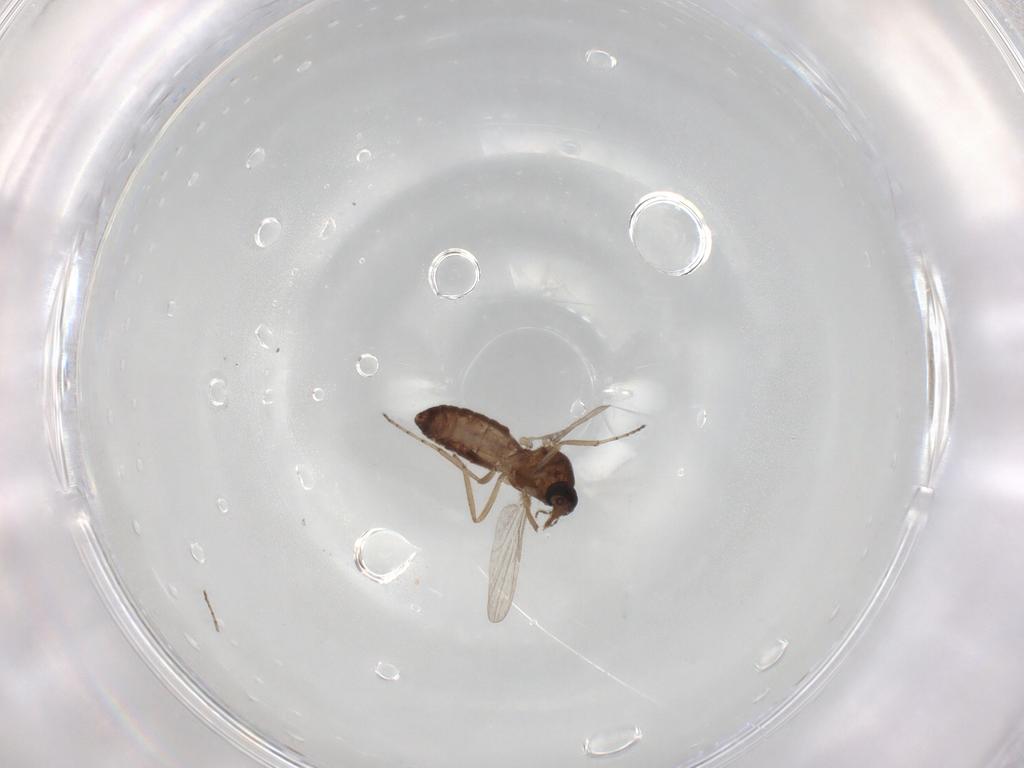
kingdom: Animalia
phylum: Arthropoda
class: Insecta
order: Diptera
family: Ceratopogonidae
